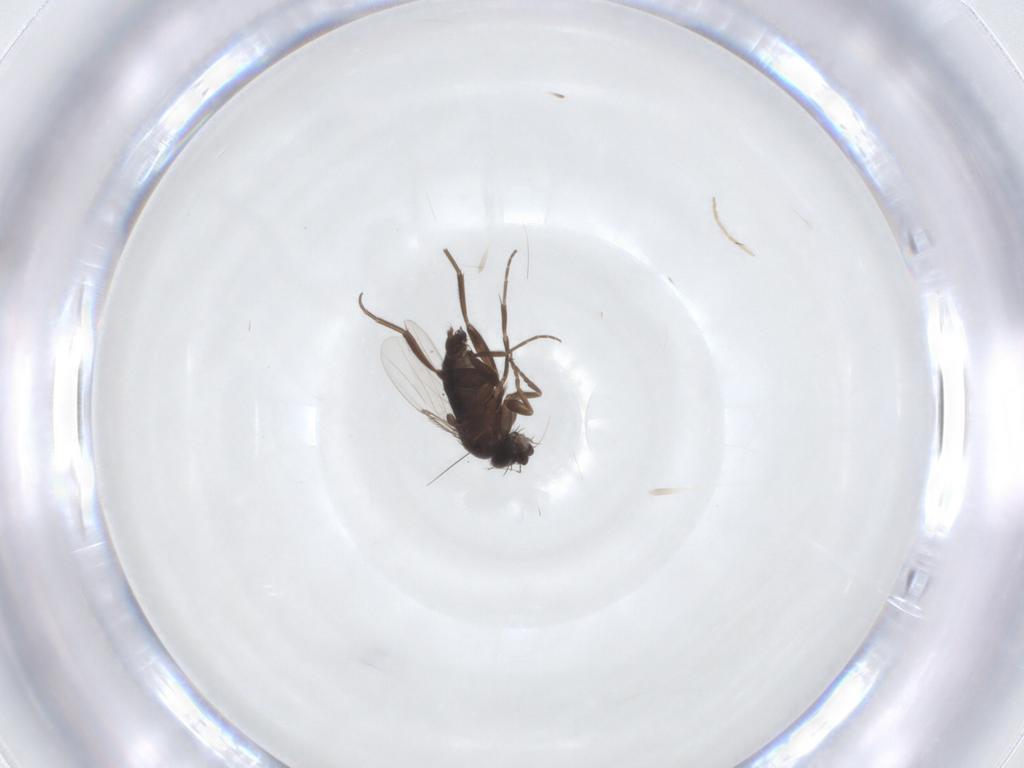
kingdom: Animalia
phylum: Arthropoda
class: Insecta
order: Diptera
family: Phoridae
